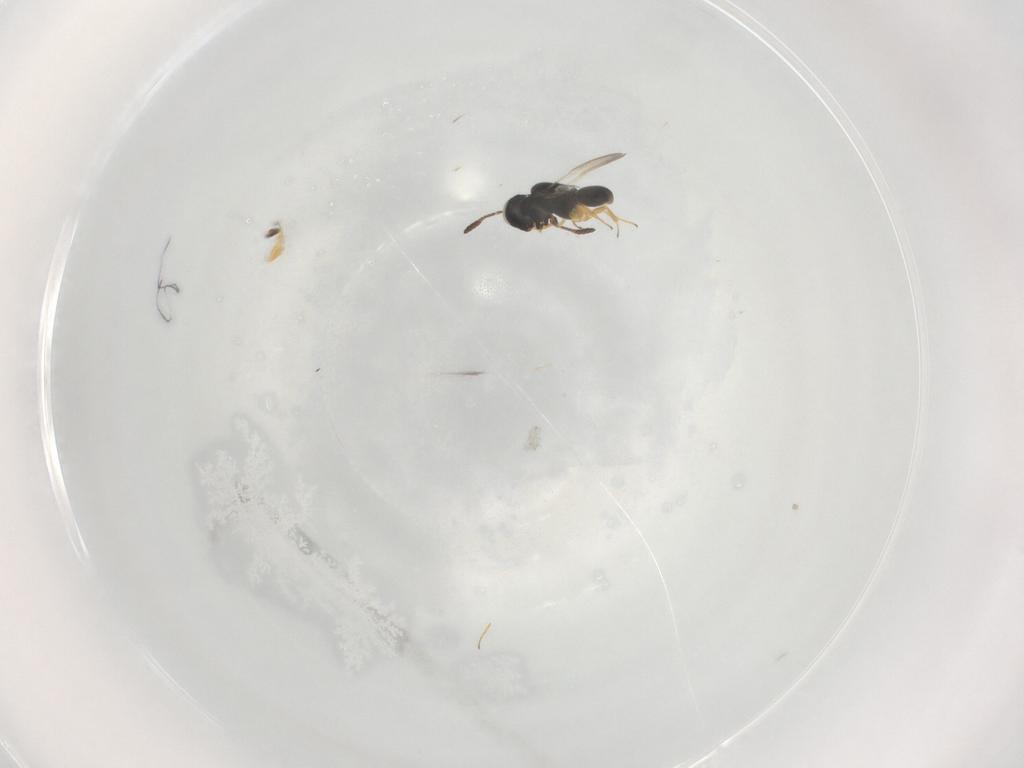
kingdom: Animalia
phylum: Arthropoda
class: Insecta
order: Hymenoptera
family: Scelionidae
